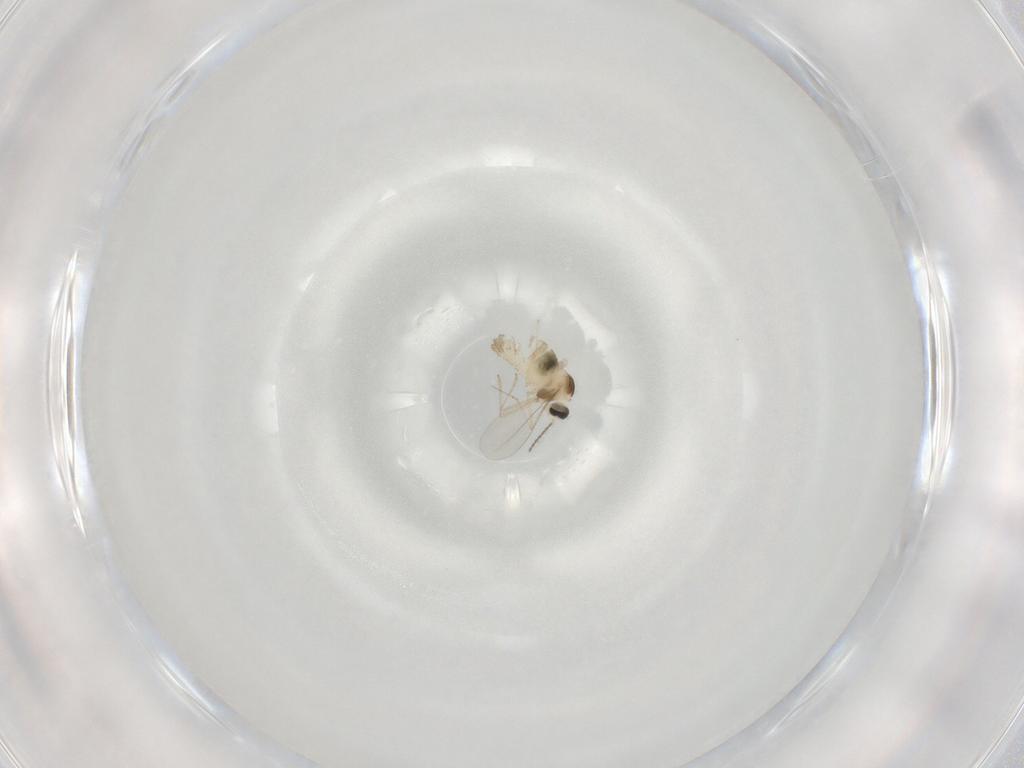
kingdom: Animalia
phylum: Arthropoda
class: Insecta
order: Diptera
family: Cecidomyiidae
